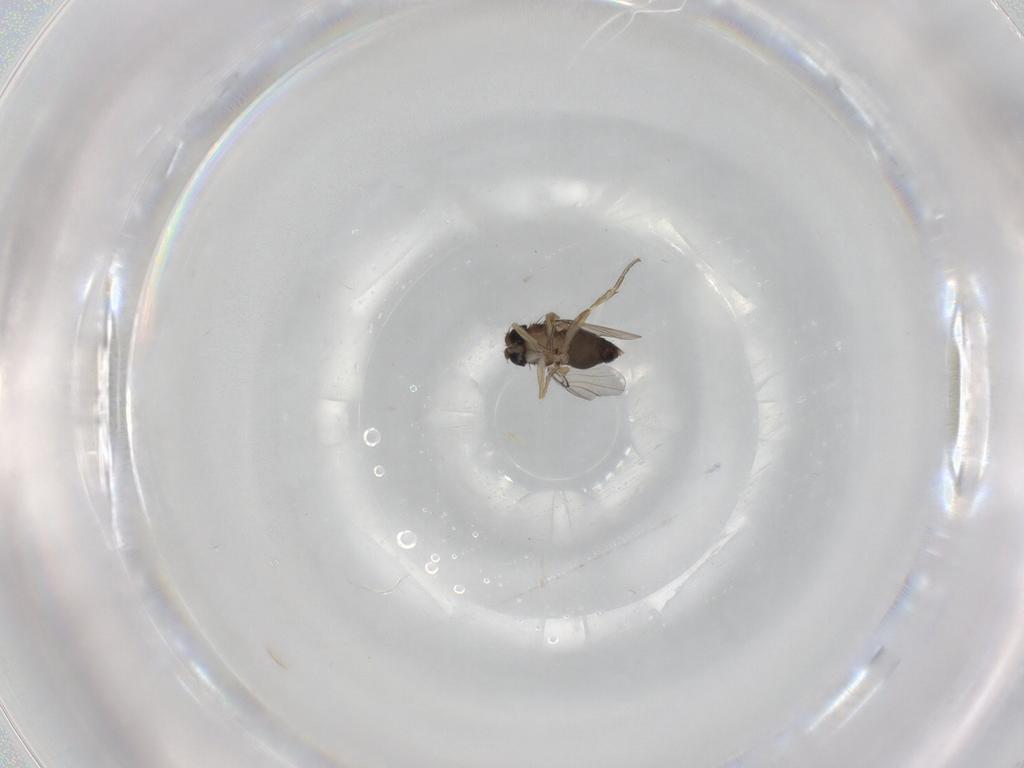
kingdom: Animalia
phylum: Arthropoda
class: Insecta
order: Diptera
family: Phoridae
